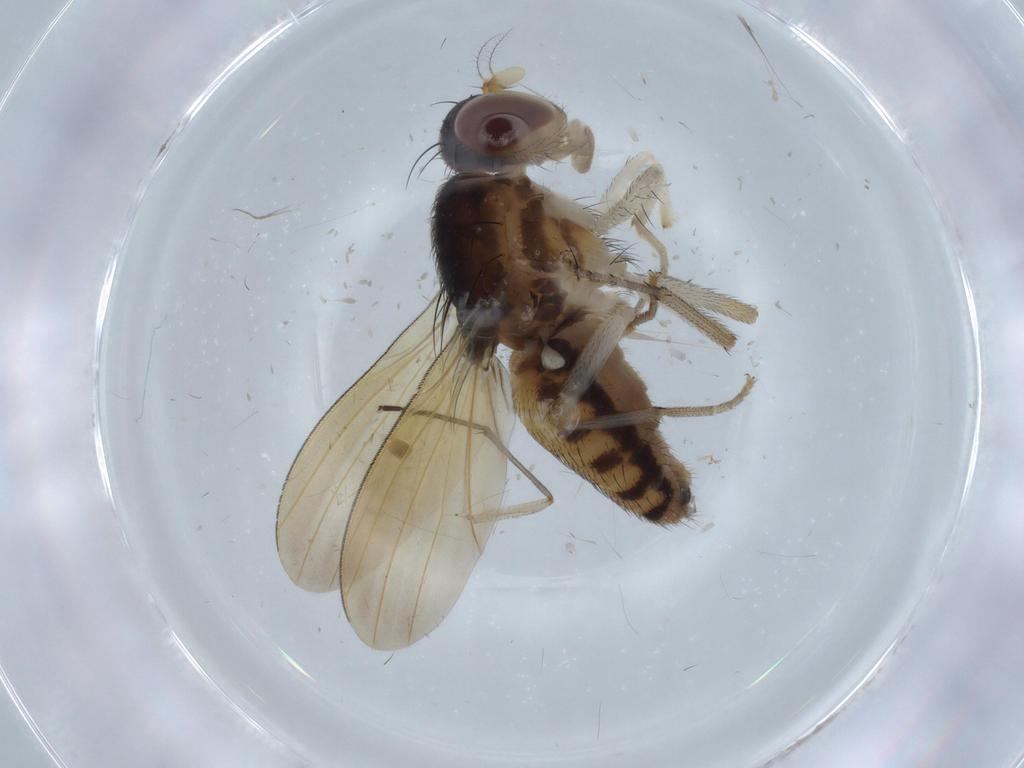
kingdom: Animalia
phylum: Arthropoda
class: Insecta
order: Diptera
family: Sciaridae
